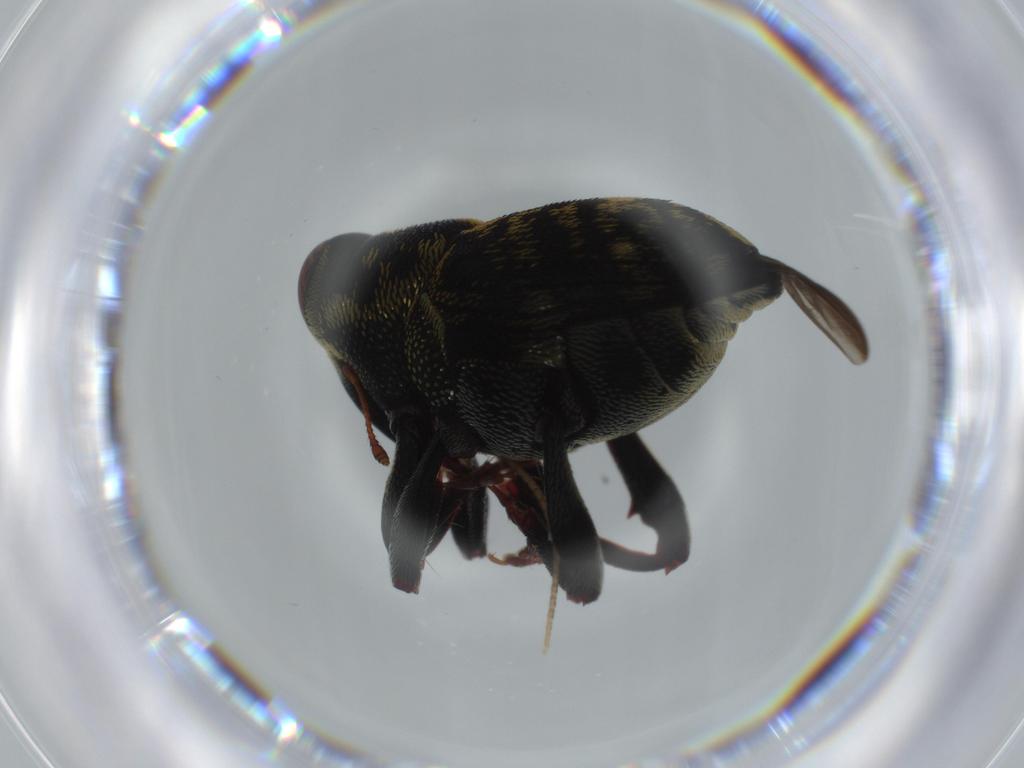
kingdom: Animalia
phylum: Arthropoda
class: Insecta
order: Coleoptera
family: Curculionidae
